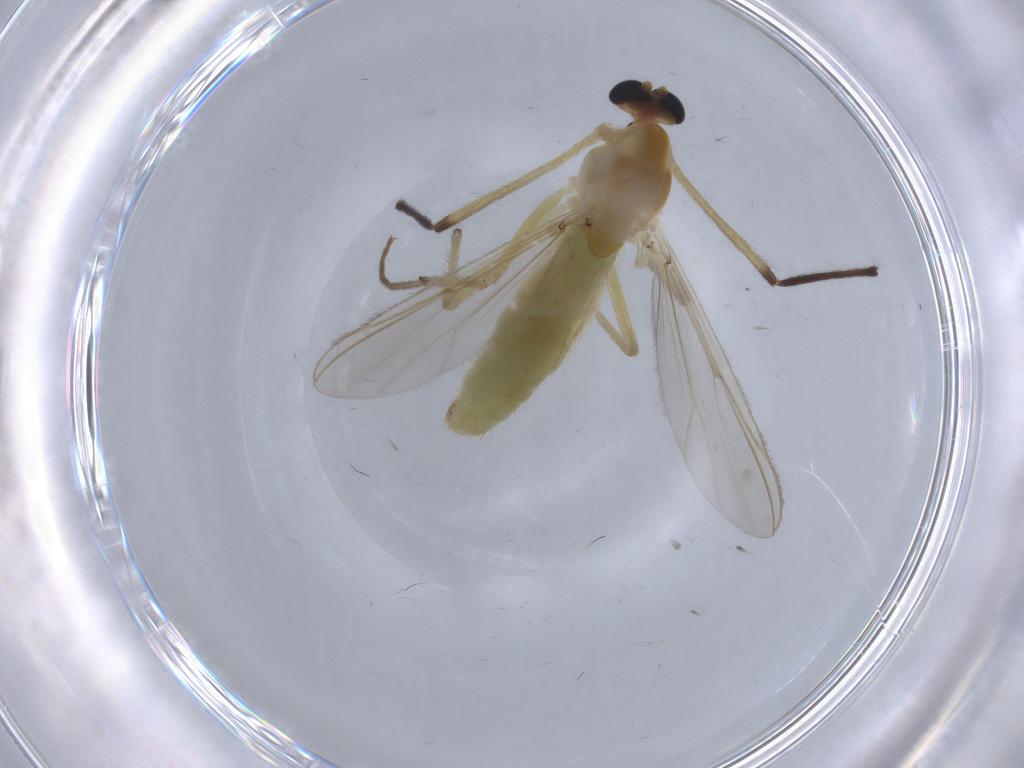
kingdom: Animalia
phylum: Arthropoda
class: Insecta
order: Diptera
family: Chironomidae
